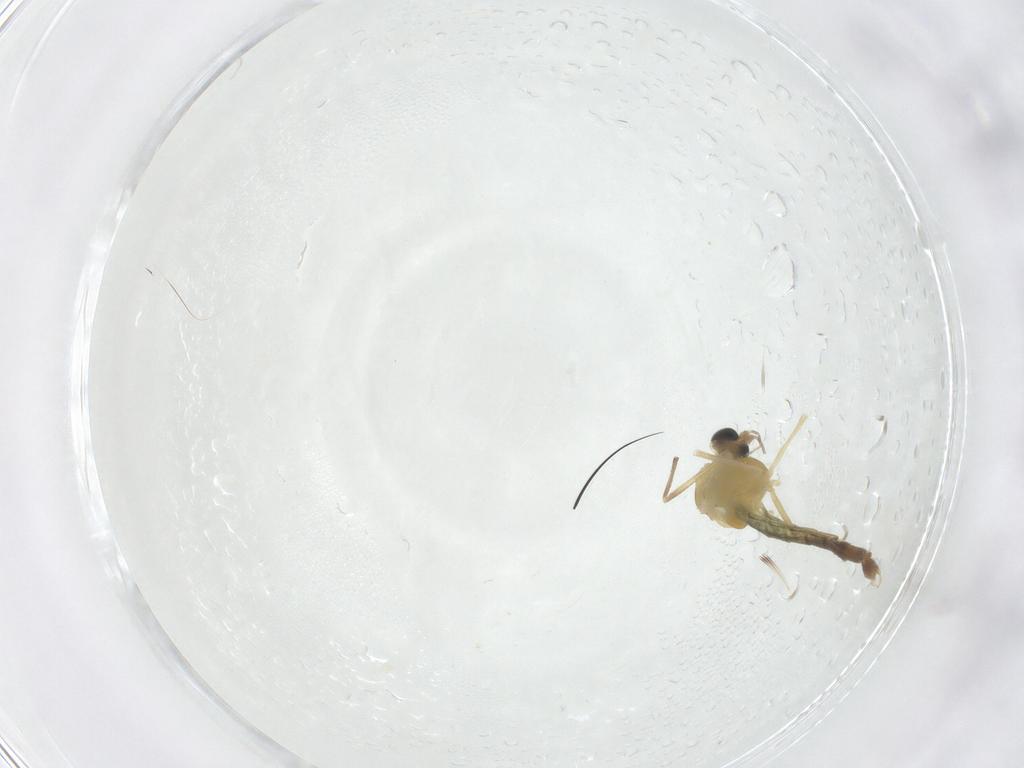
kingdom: Animalia
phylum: Arthropoda
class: Insecta
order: Diptera
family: Chironomidae
